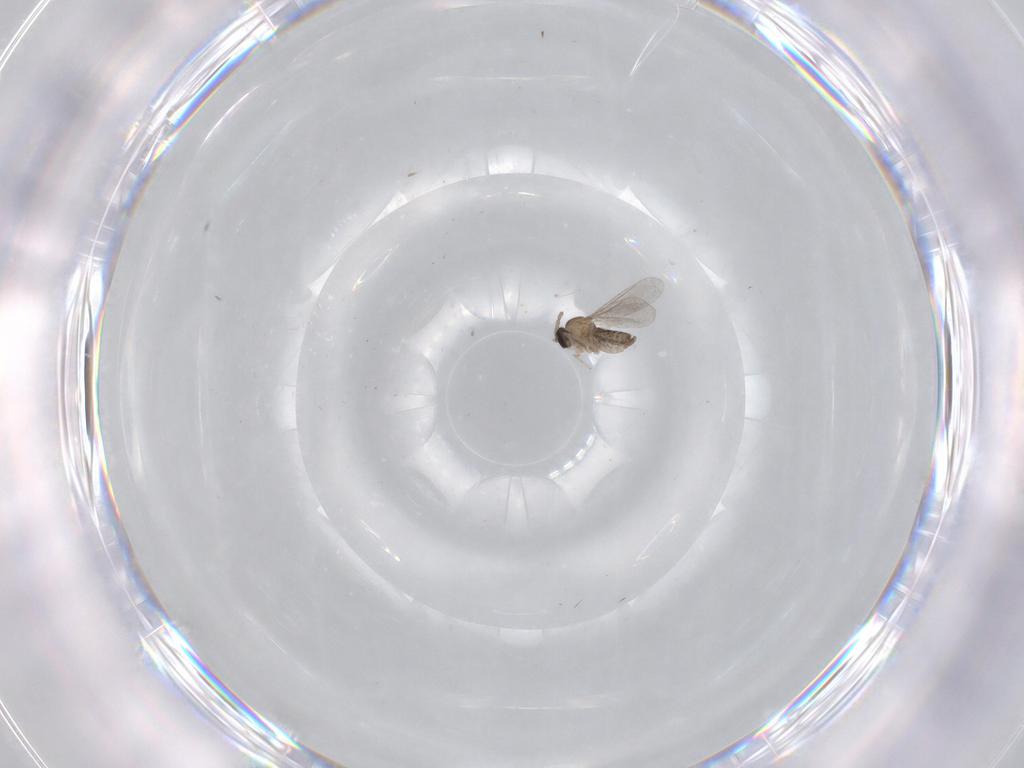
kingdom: Animalia
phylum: Arthropoda
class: Insecta
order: Diptera
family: Cecidomyiidae
